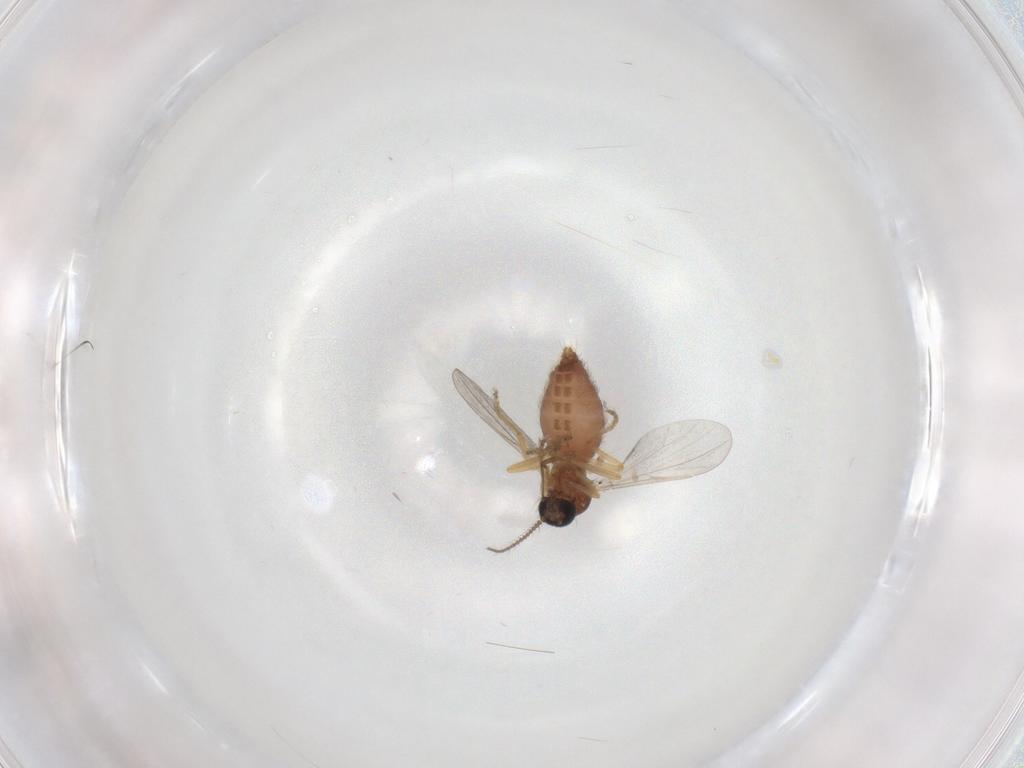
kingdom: Animalia
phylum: Arthropoda
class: Insecta
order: Diptera
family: Ceratopogonidae
